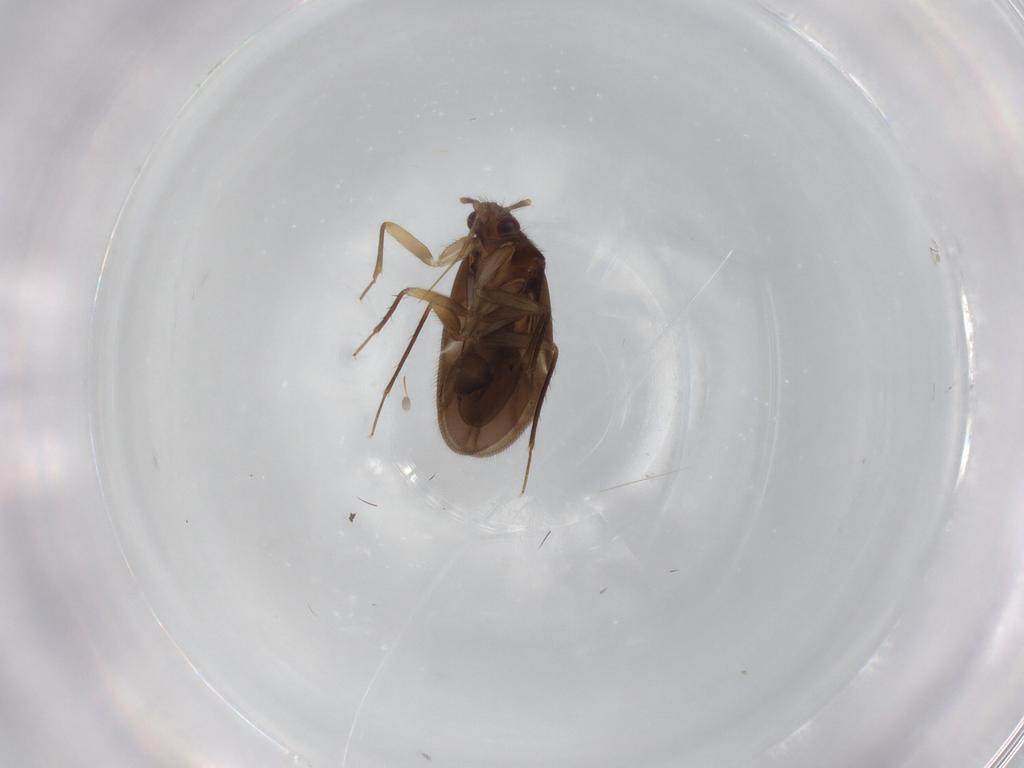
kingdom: Animalia
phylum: Arthropoda
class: Insecta
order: Hemiptera
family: Ceratocombidae
